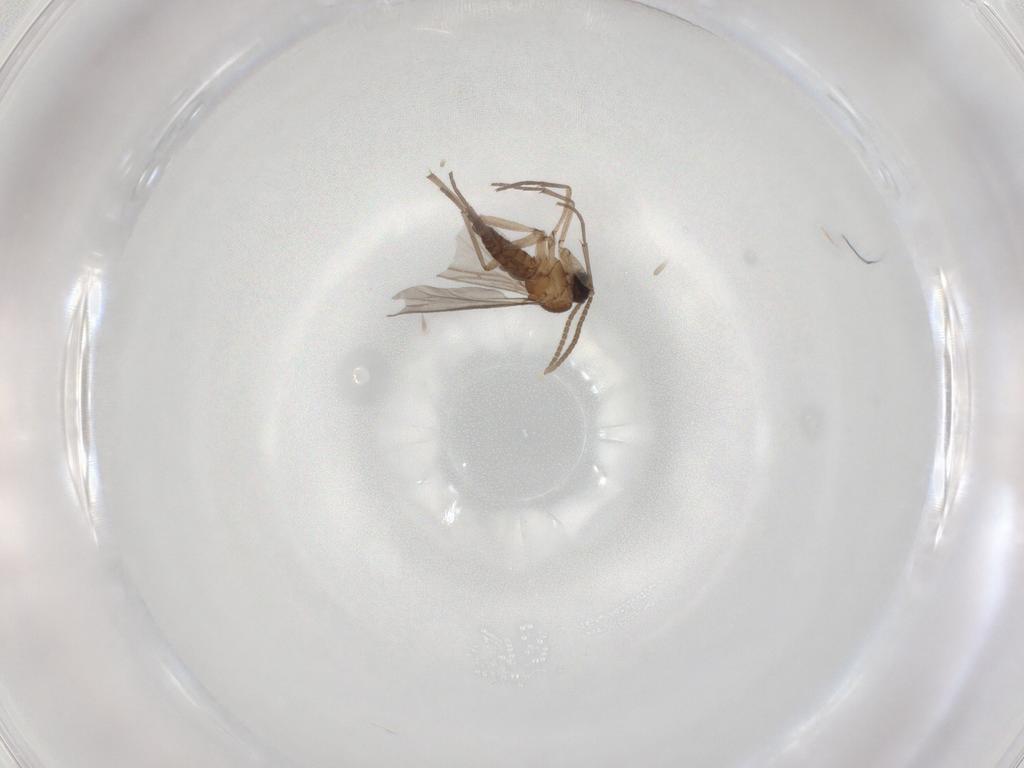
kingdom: Animalia
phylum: Arthropoda
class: Insecta
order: Diptera
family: Sciaridae
